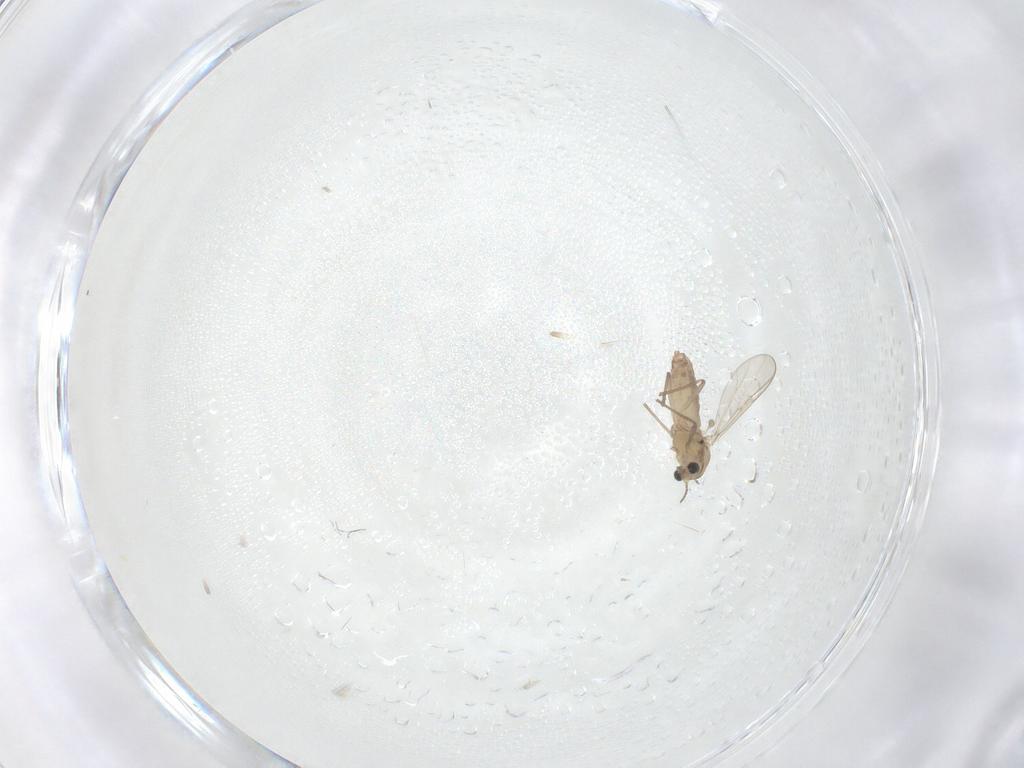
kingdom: Animalia
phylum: Arthropoda
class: Insecta
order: Diptera
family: Chironomidae
